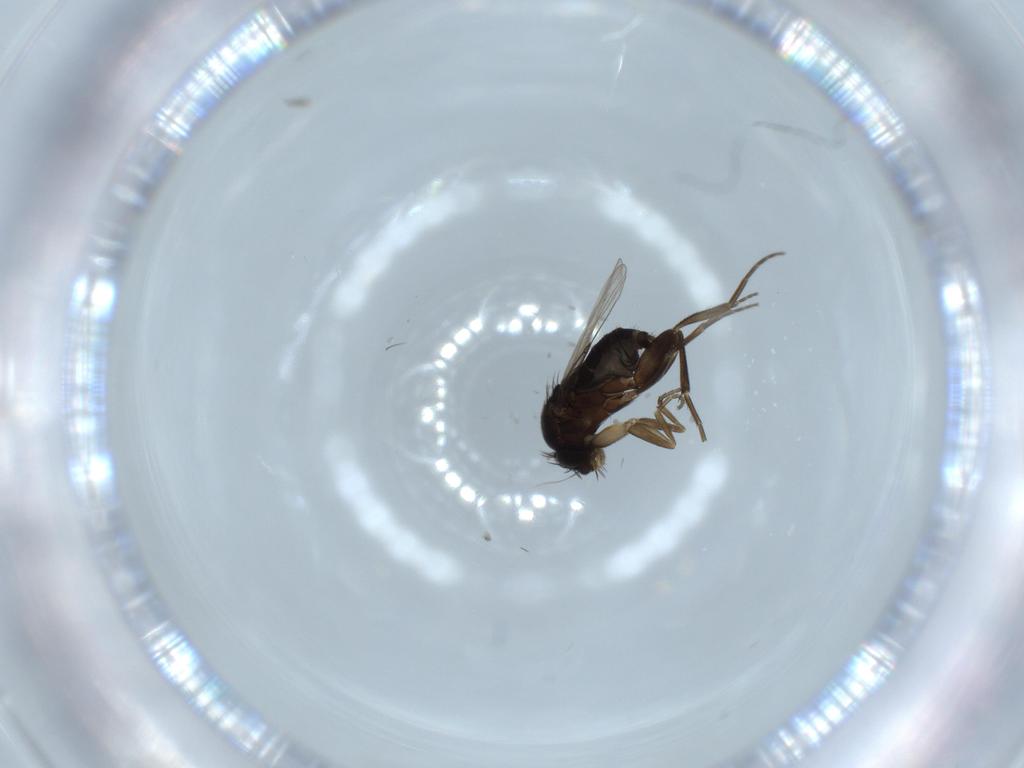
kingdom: Animalia
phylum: Arthropoda
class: Insecta
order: Diptera
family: Phoridae
